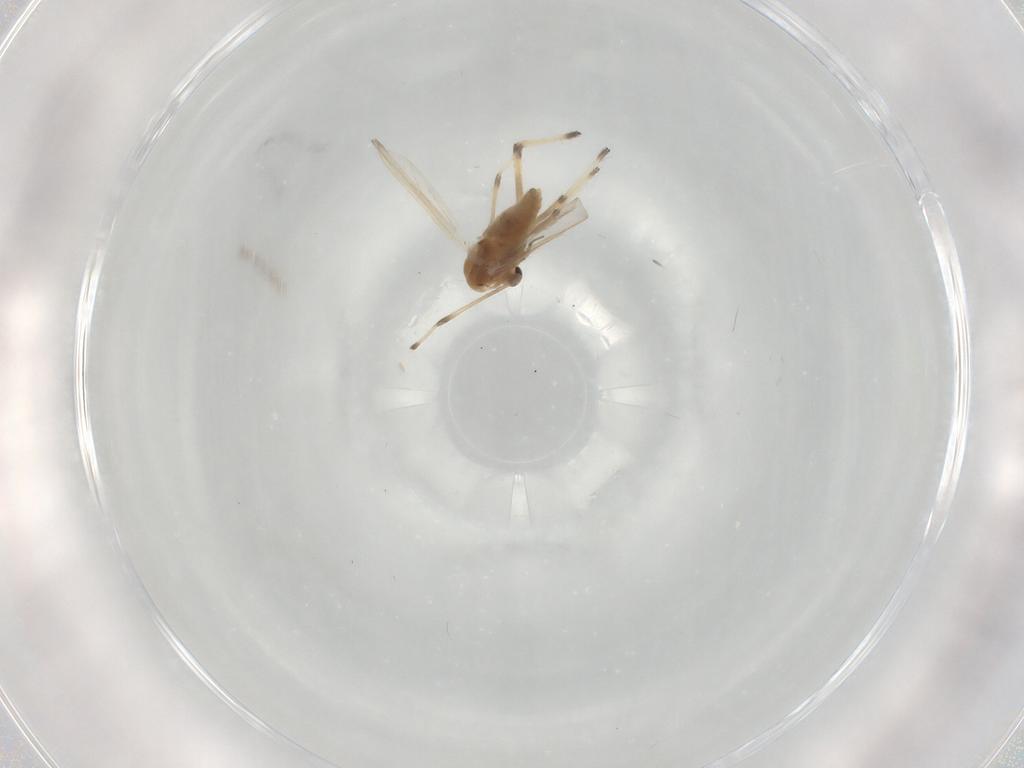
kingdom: Animalia
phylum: Arthropoda
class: Insecta
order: Diptera
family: Chironomidae
